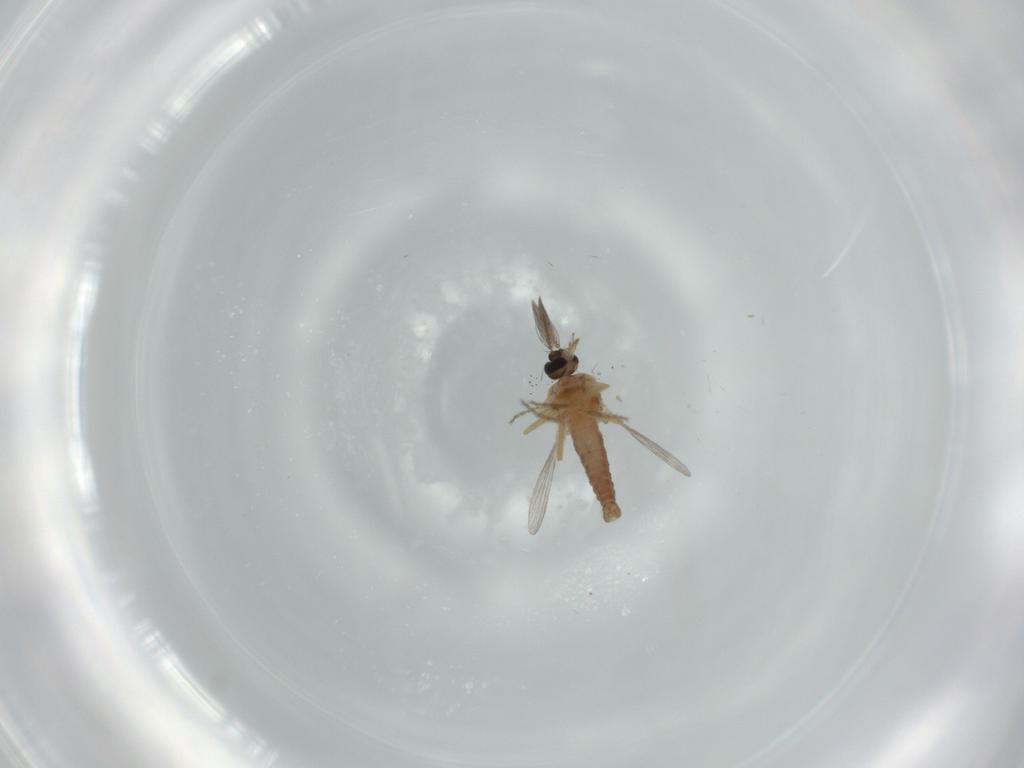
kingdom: Animalia
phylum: Arthropoda
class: Insecta
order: Diptera
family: Ceratopogonidae
